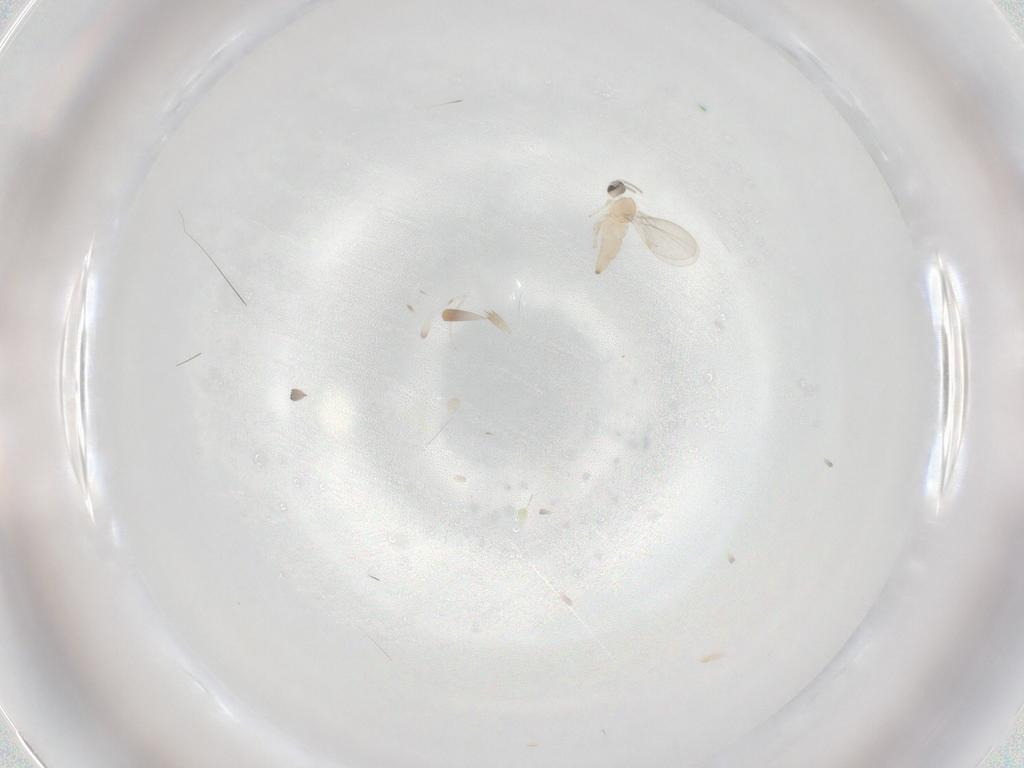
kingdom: Animalia
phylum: Arthropoda
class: Insecta
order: Diptera
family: Cecidomyiidae
